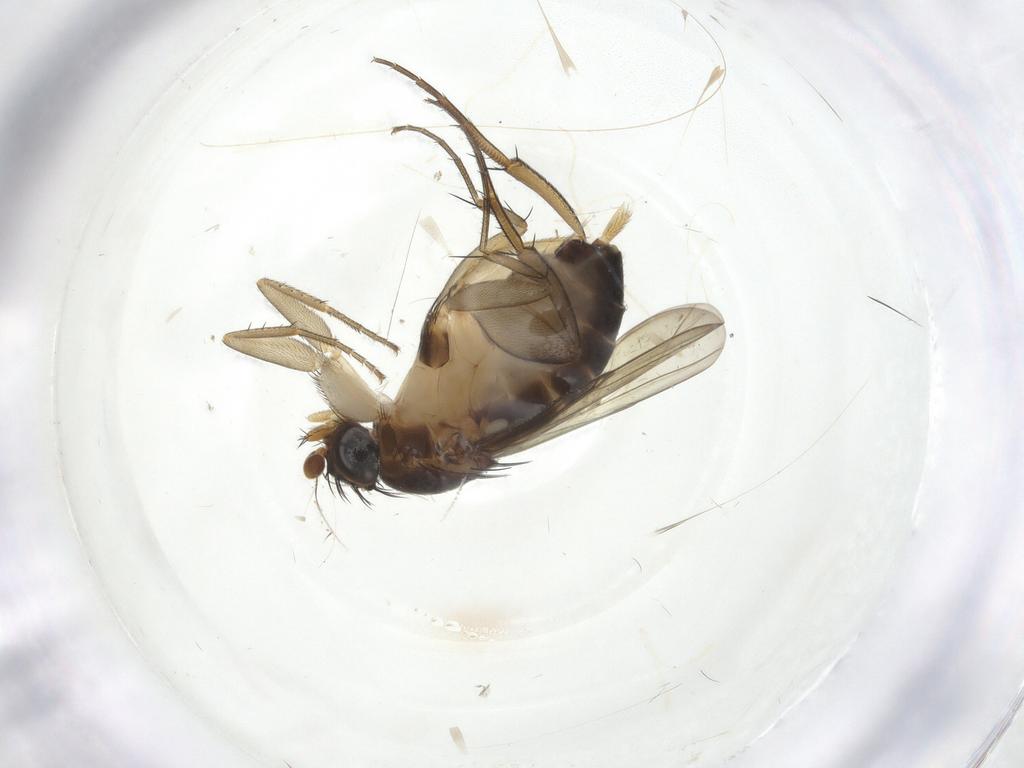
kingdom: Animalia
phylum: Arthropoda
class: Insecta
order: Diptera
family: Phoridae
